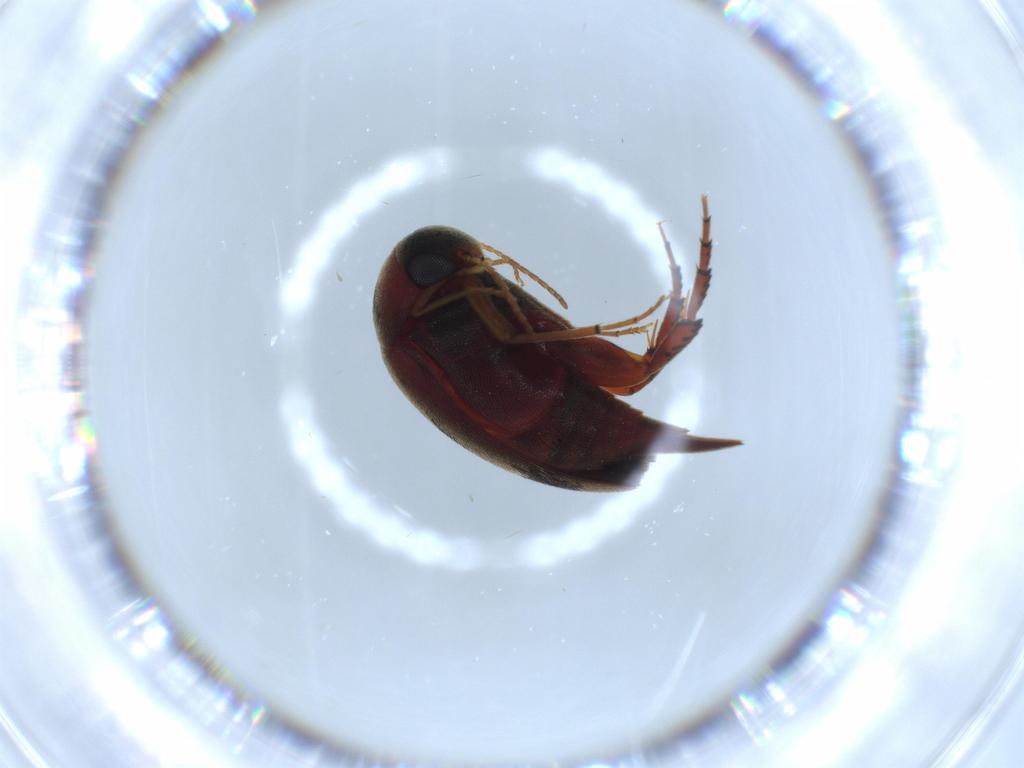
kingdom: Animalia
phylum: Arthropoda
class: Insecta
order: Coleoptera
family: Mordellidae
